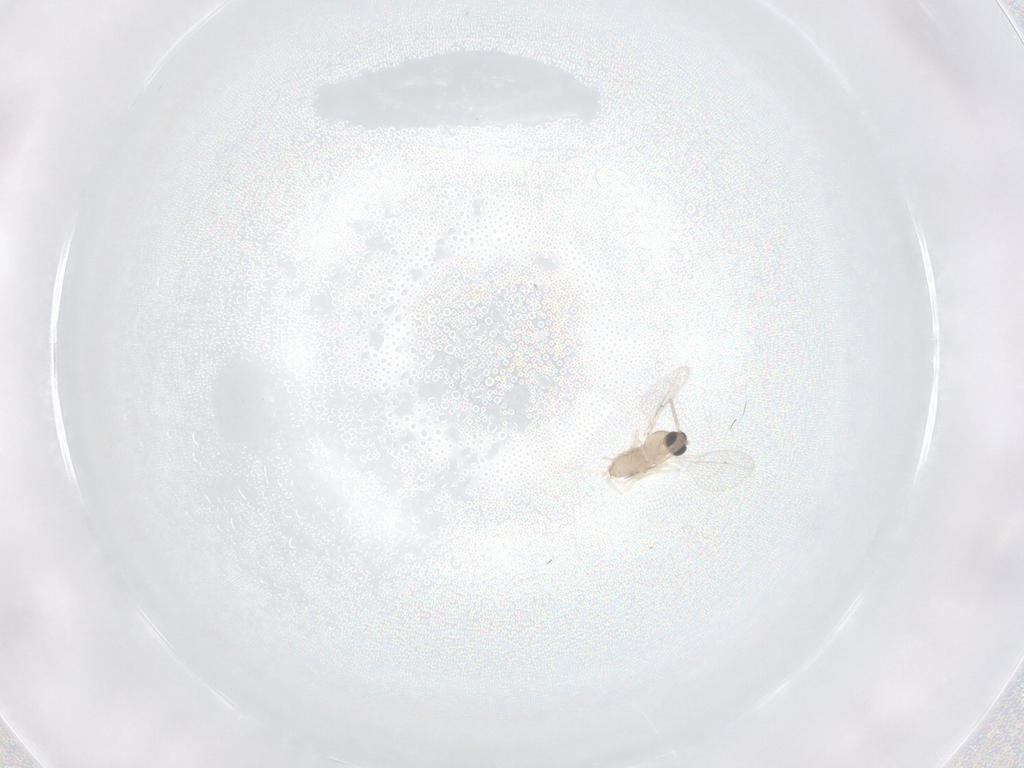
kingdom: Animalia
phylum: Arthropoda
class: Insecta
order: Diptera
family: Cecidomyiidae
